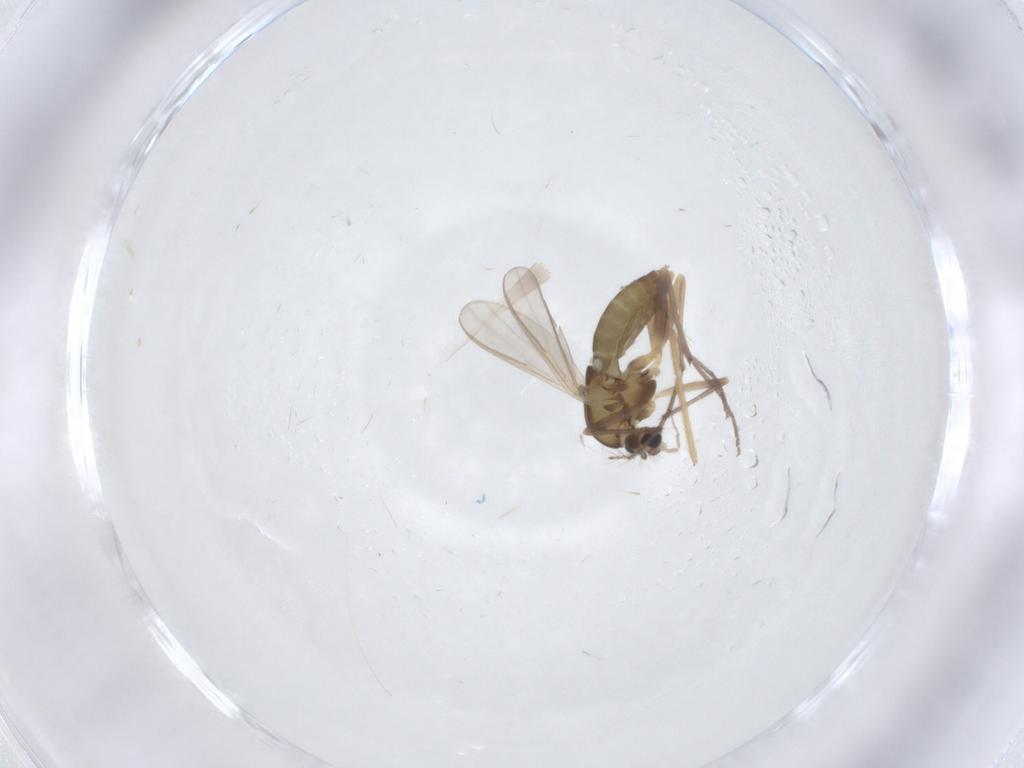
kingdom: Animalia
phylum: Arthropoda
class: Insecta
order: Diptera
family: Chironomidae
